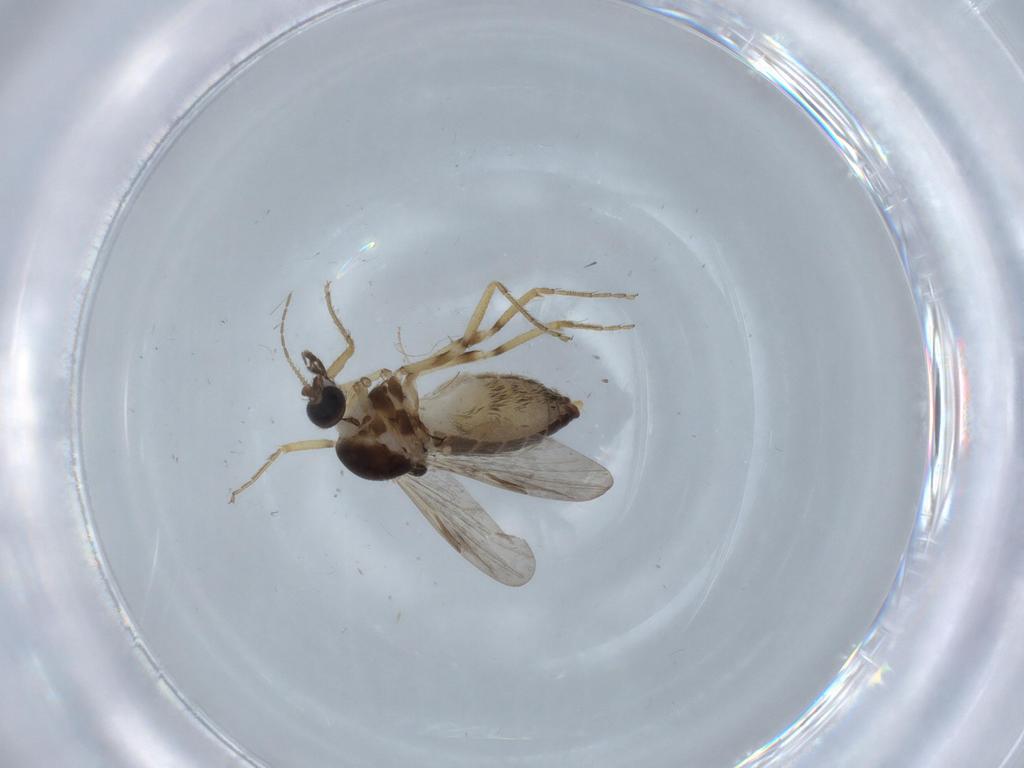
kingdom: Animalia
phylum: Arthropoda
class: Insecta
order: Diptera
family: Ceratopogonidae
